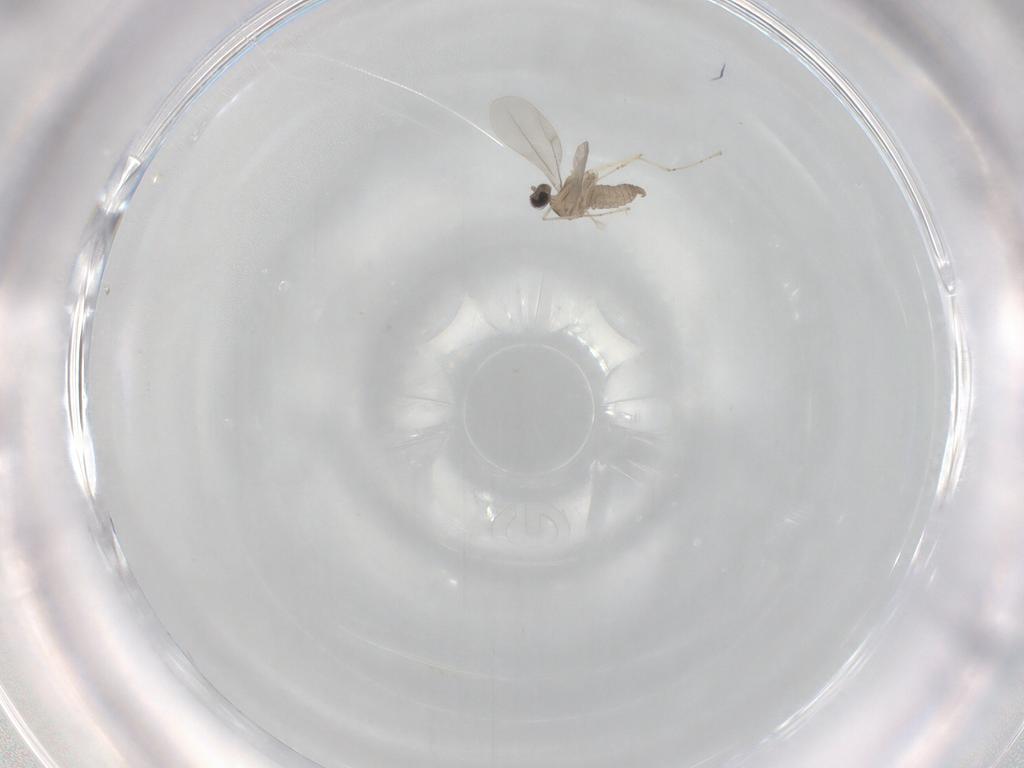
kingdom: Animalia
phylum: Arthropoda
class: Insecta
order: Diptera
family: Cecidomyiidae
